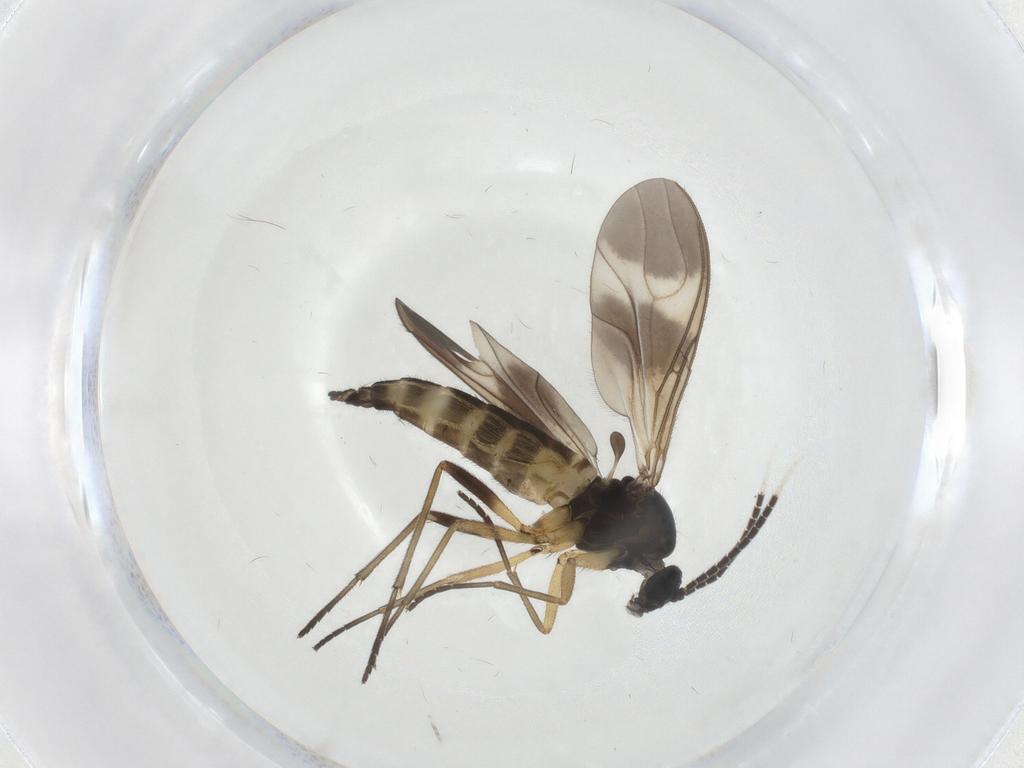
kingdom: Animalia
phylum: Arthropoda
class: Insecta
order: Diptera
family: Sciaridae
